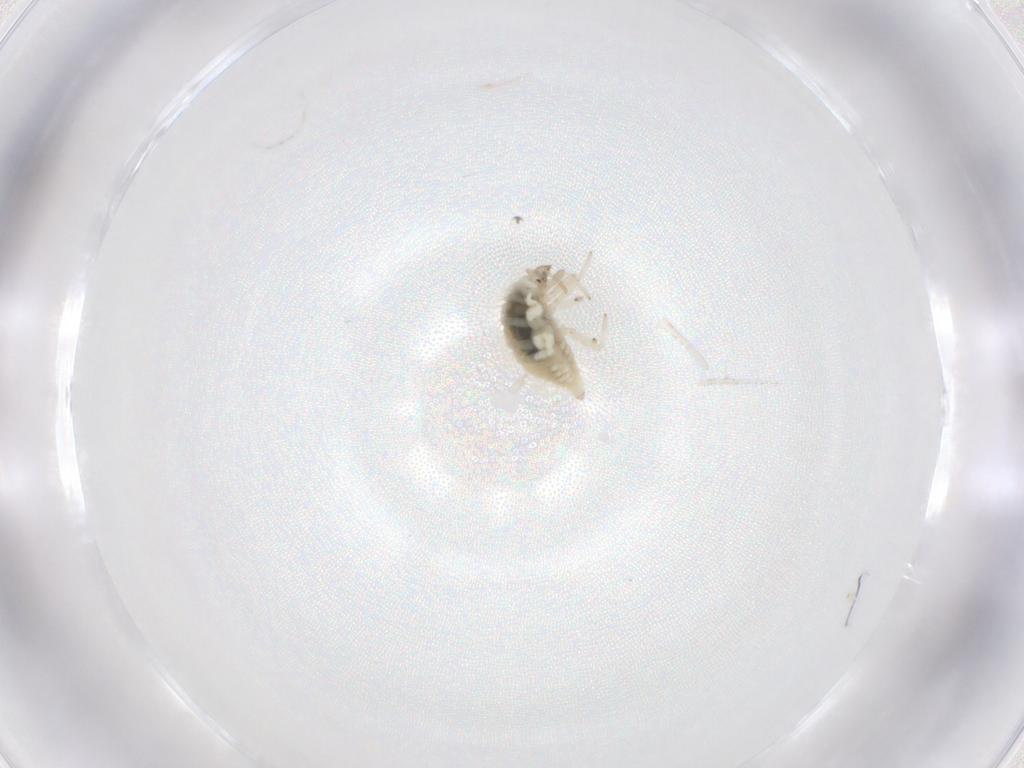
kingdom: Animalia
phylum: Arthropoda
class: Insecta
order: Neuroptera
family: Coniopterygidae
